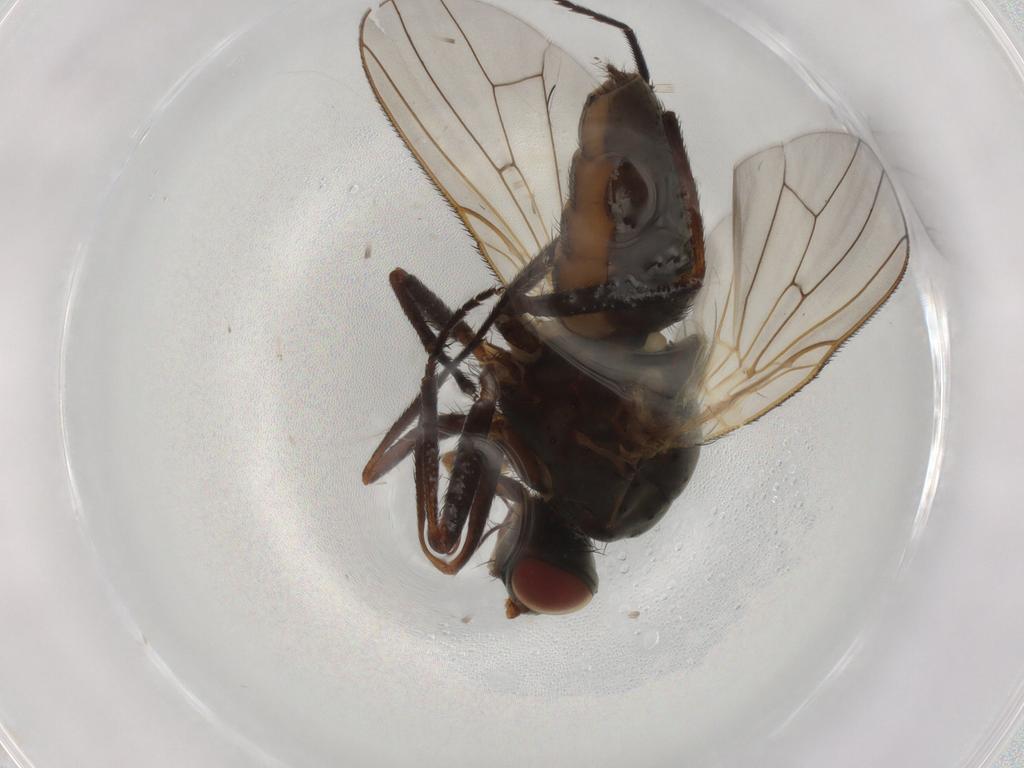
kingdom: Animalia
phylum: Arthropoda
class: Insecta
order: Diptera
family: Anthomyiidae
